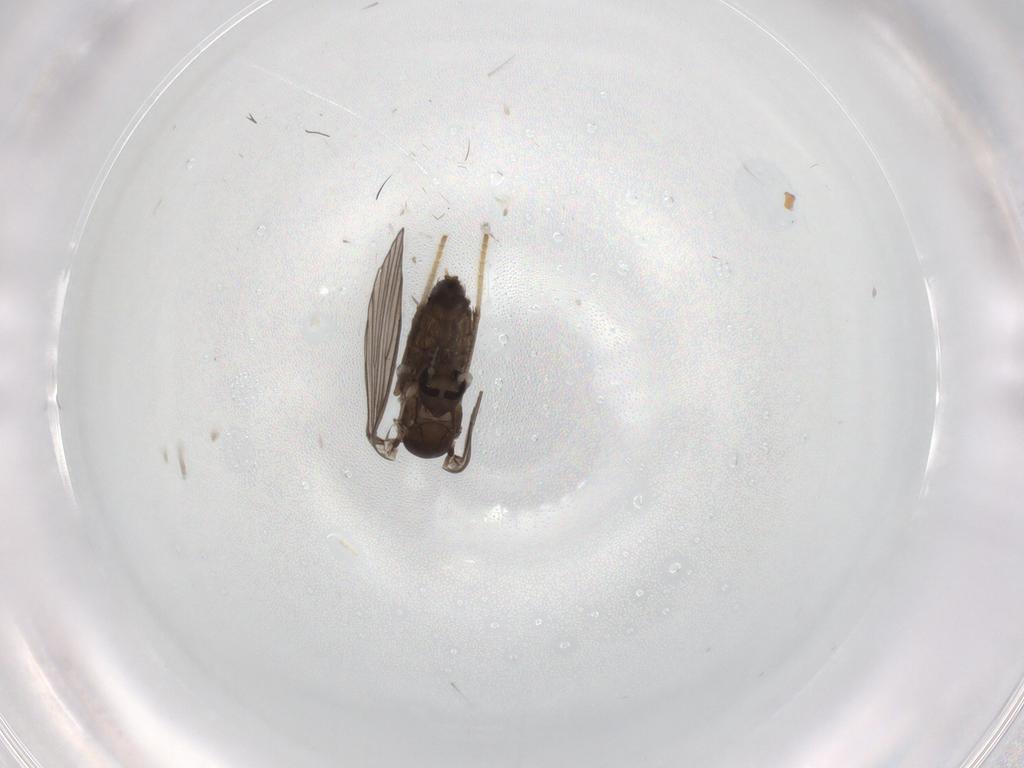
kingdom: Animalia
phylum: Arthropoda
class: Insecta
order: Diptera
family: Psychodidae
